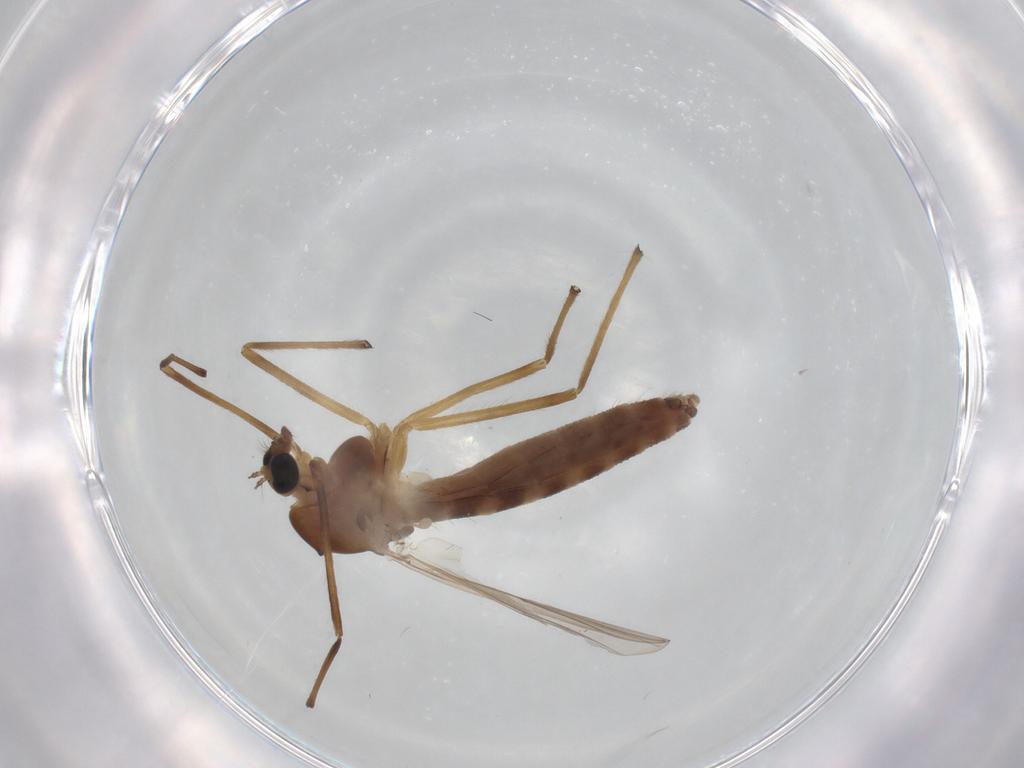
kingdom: Animalia
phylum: Arthropoda
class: Insecta
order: Diptera
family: Chironomidae
